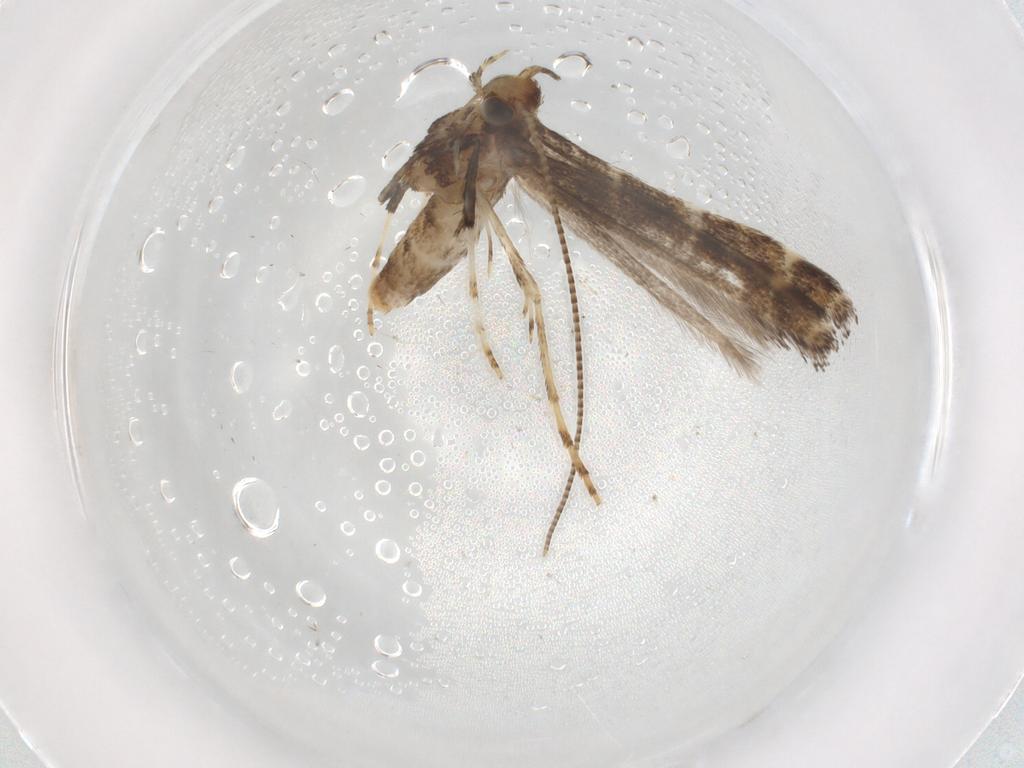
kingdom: Animalia
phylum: Arthropoda
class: Insecta
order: Lepidoptera
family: Gracillariidae
